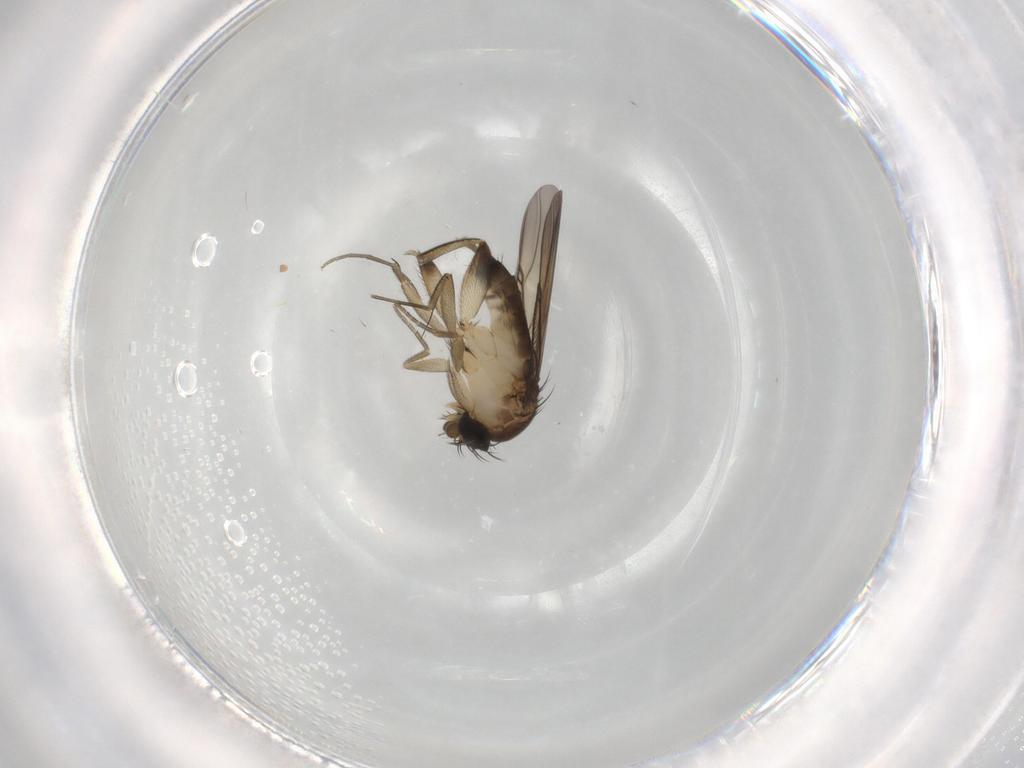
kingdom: Animalia
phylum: Arthropoda
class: Insecta
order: Diptera
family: Phoridae
